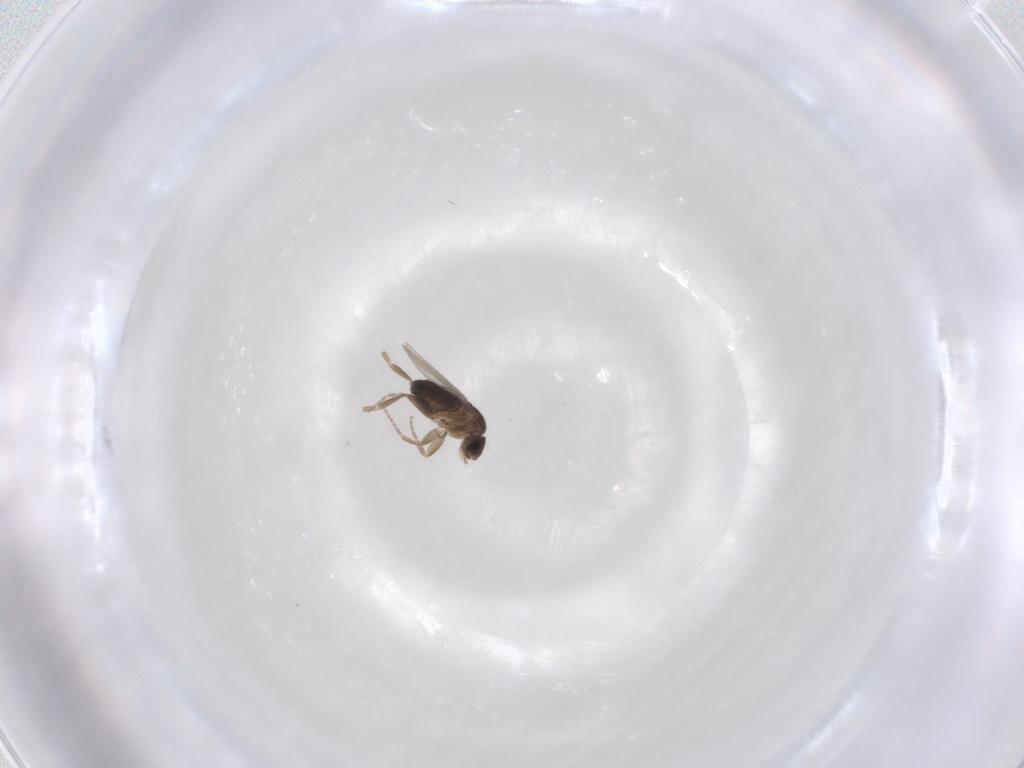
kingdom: Animalia
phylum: Arthropoda
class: Insecta
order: Diptera
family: Phoridae
